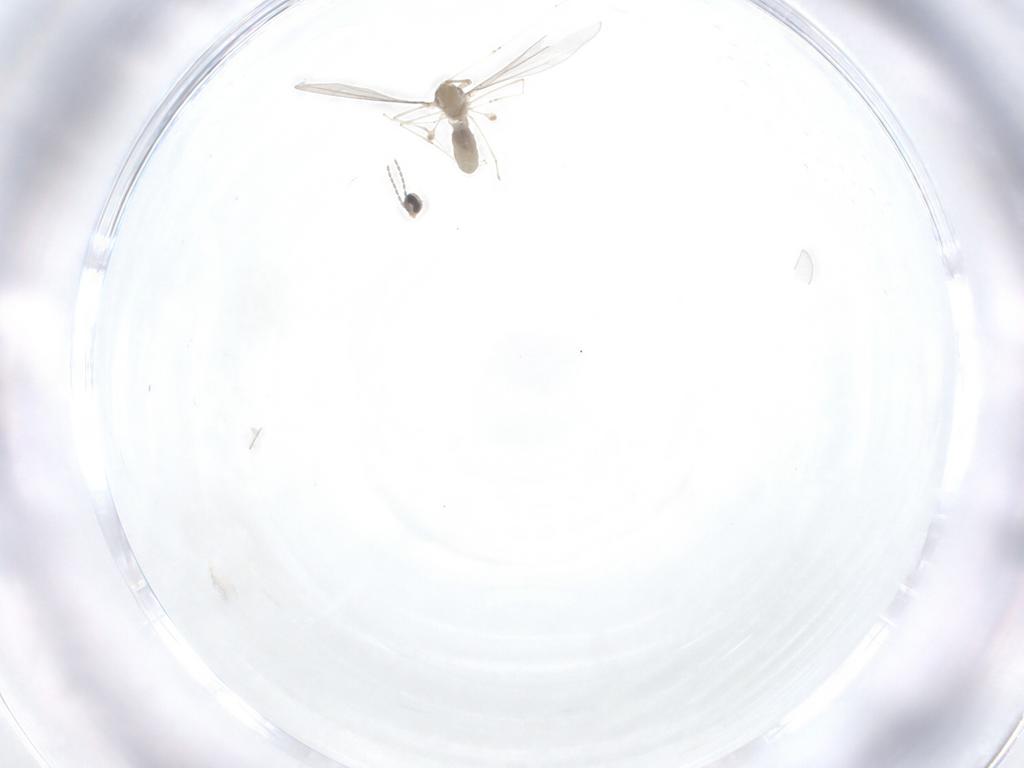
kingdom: Animalia
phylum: Arthropoda
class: Insecta
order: Diptera
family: Cecidomyiidae
